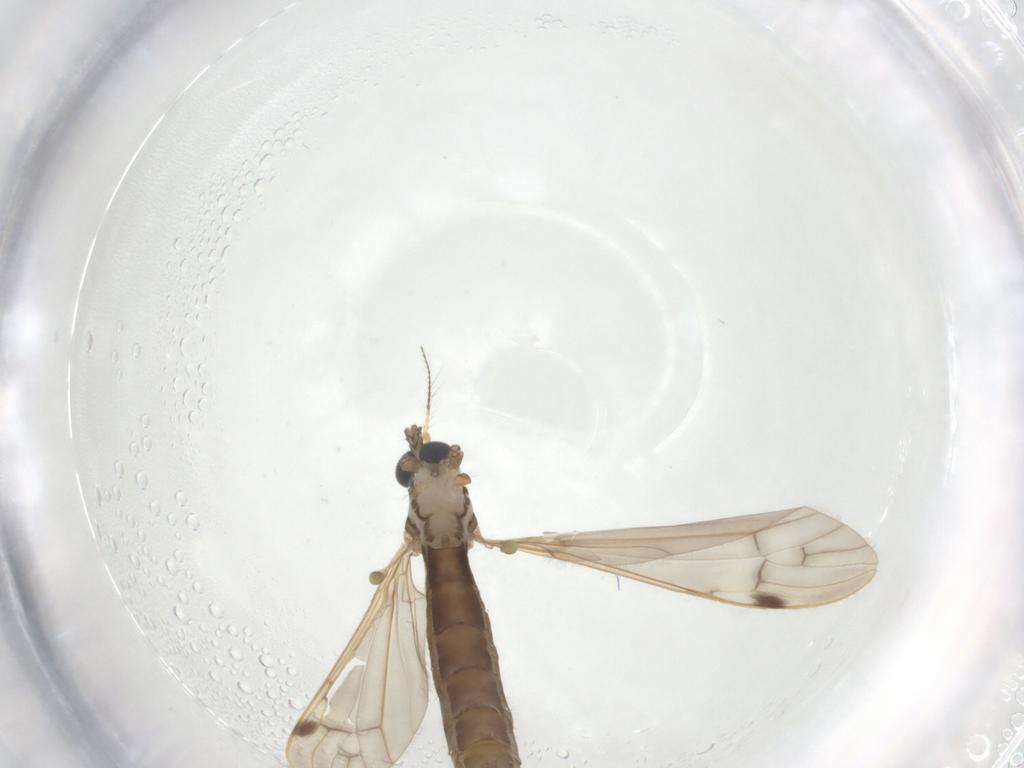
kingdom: Animalia
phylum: Arthropoda
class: Insecta
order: Diptera
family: Limoniidae
